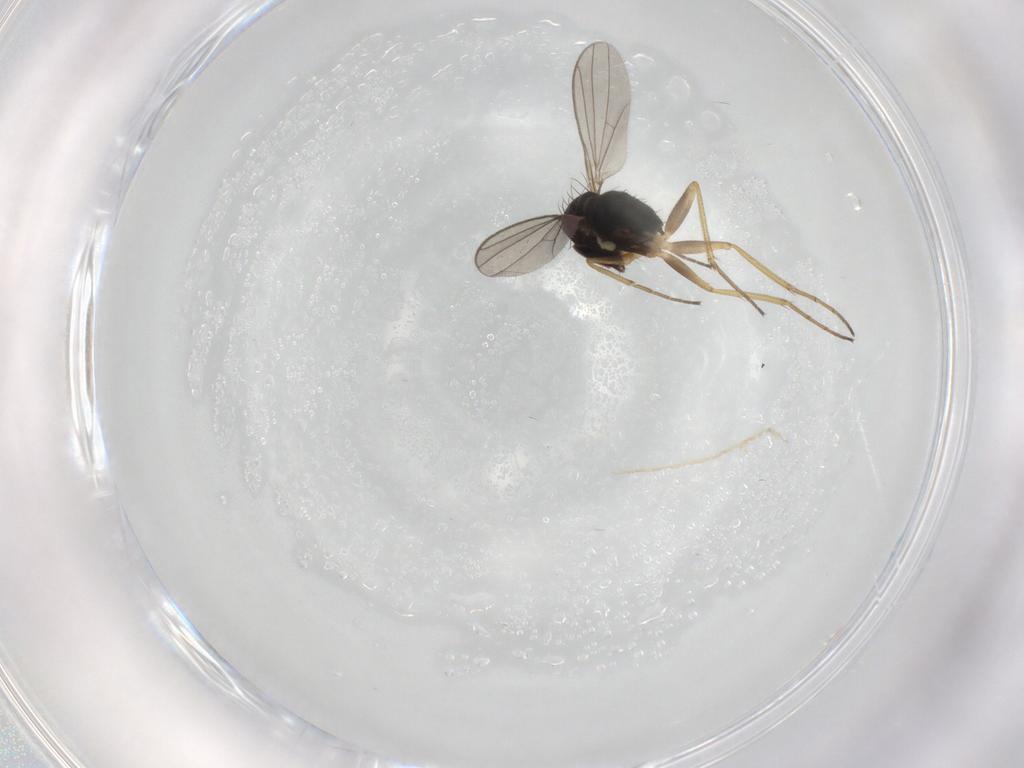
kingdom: Animalia
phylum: Arthropoda
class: Insecta
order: Diptera
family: Dolichopodidae
